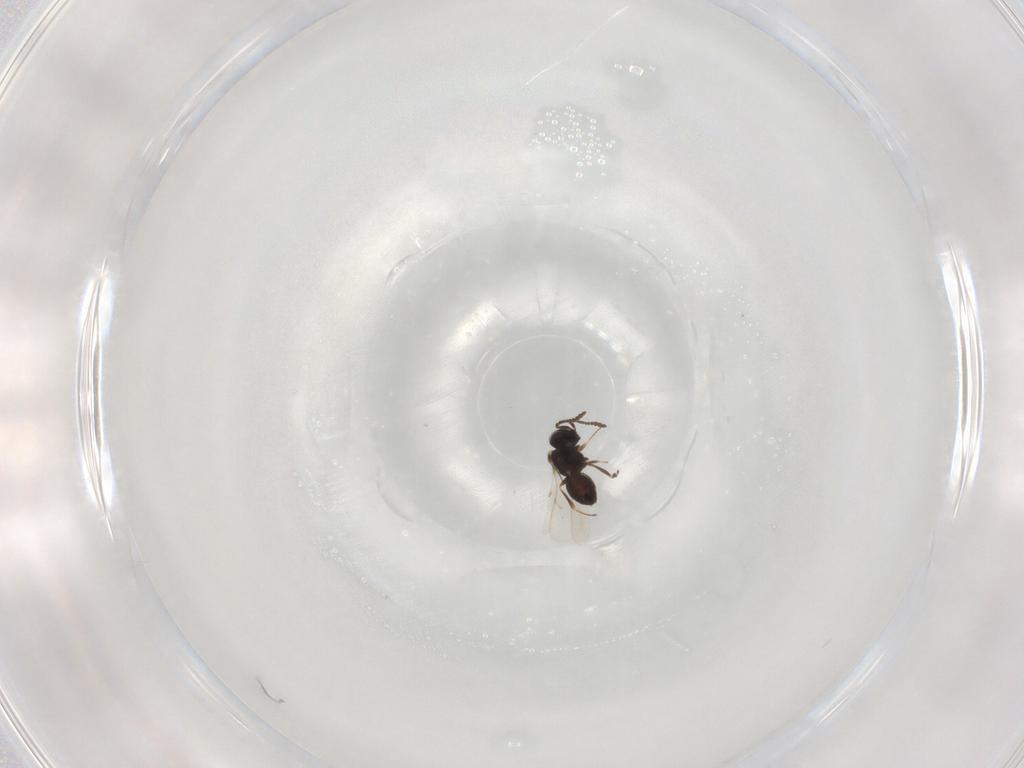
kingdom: Animalia
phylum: Arthropoda
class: Insecta
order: Hymenoptera
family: Scelionidae
